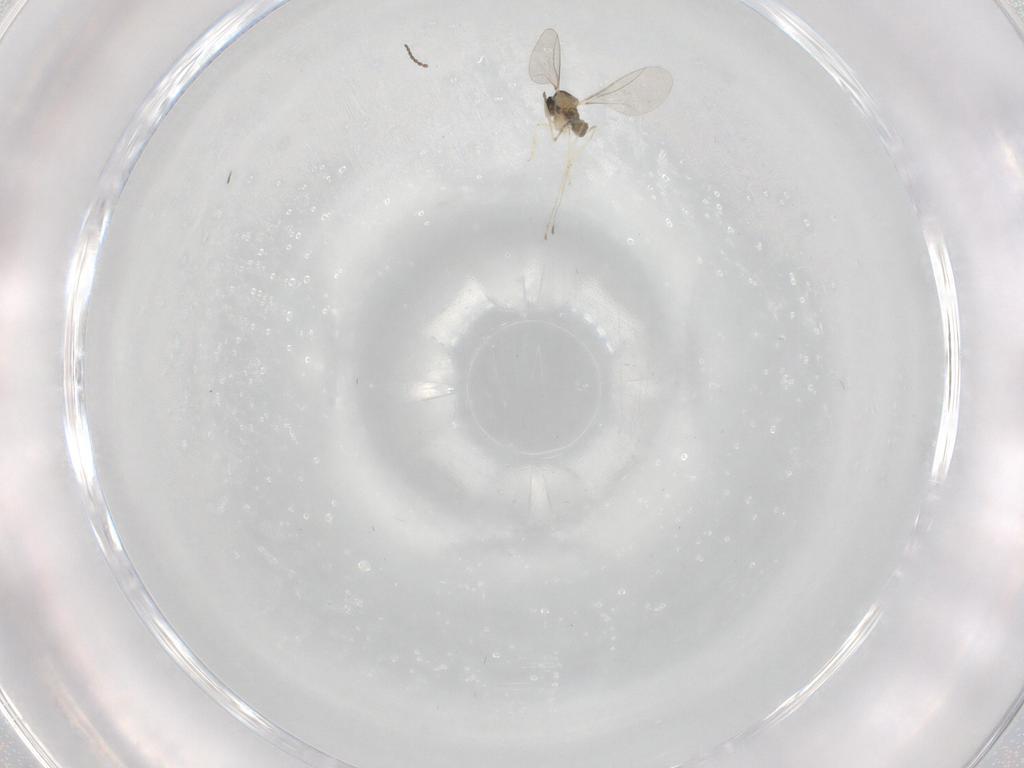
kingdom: Animalia
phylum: Arthropoda
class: Insecta
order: Diptera
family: Cecidomyiidae
